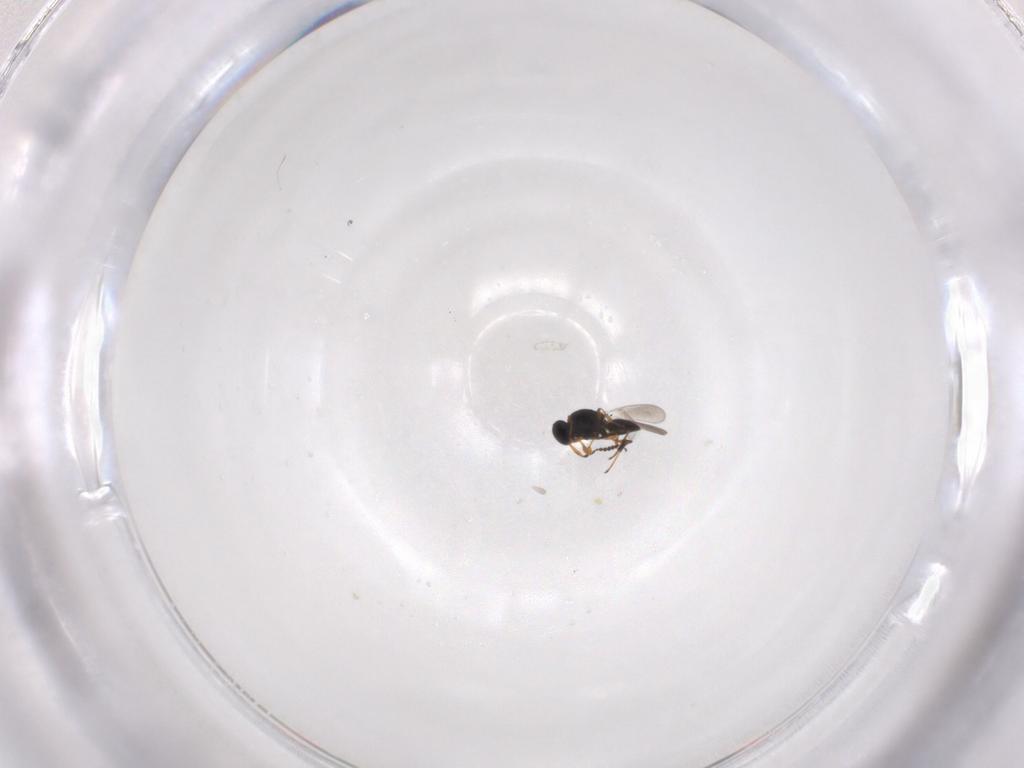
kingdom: Animalia
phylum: Arthropoda
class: Insecta
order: Hymenoptera
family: Platygastridae
